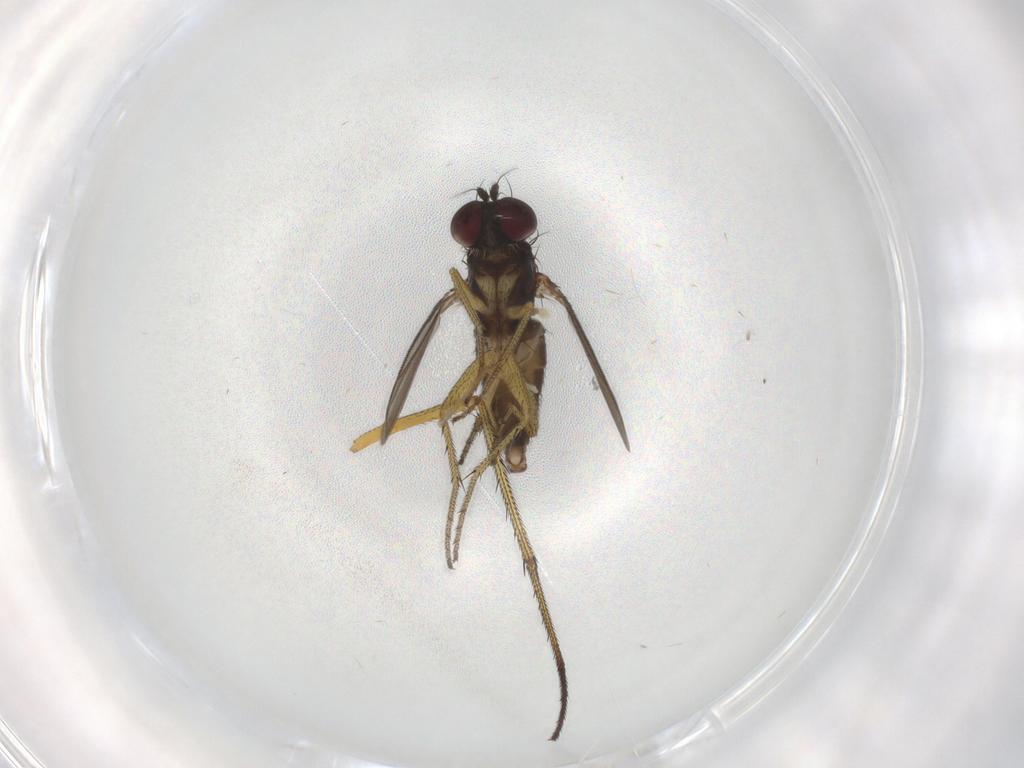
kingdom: Animalia
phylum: Arthropoda
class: Insecta
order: Diptera
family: Dolichopodidae
